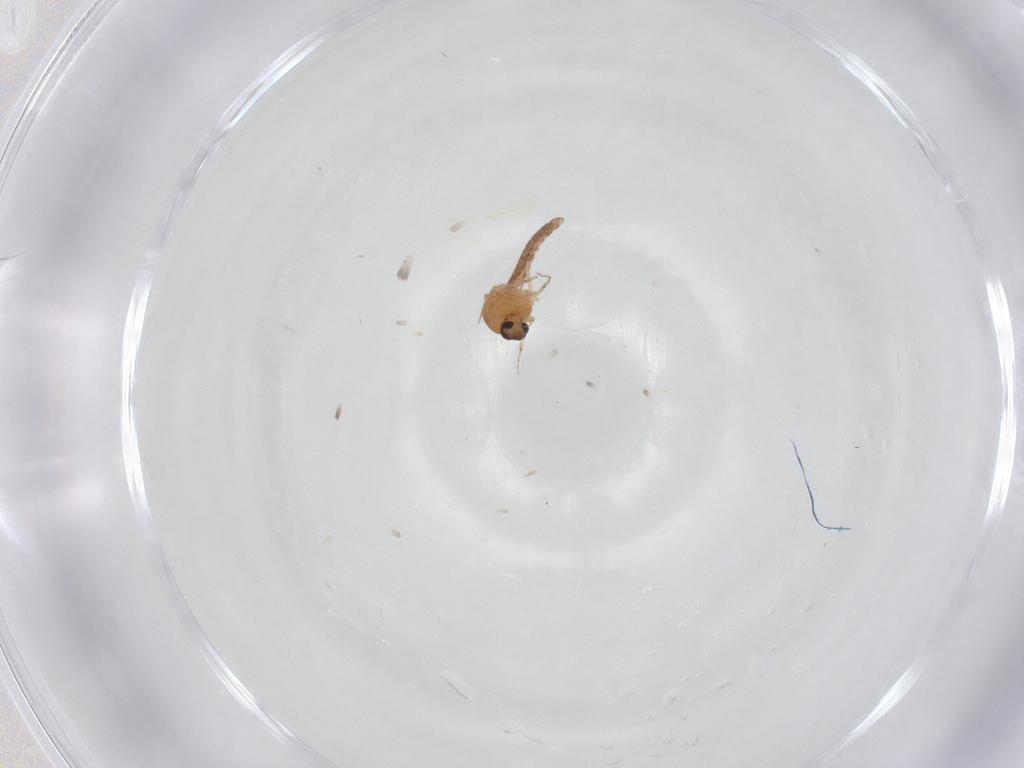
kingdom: Animalia
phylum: Arthropoda
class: Insecta
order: Diptera
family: Ceratopogonidae
